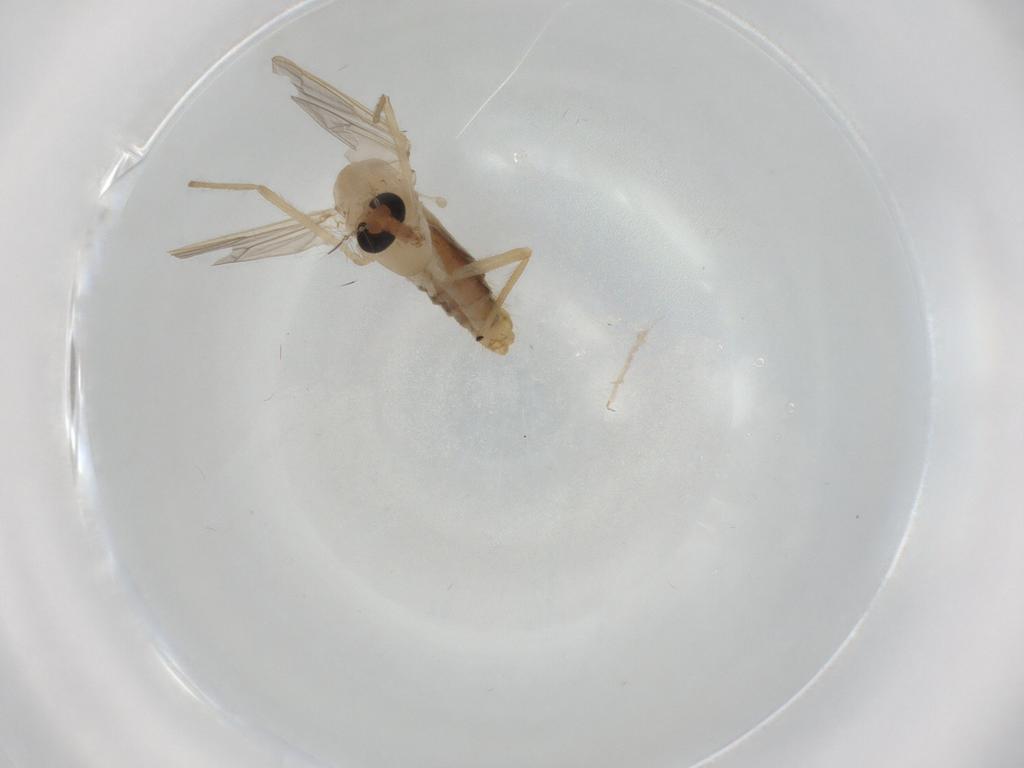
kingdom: Animalia
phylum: Arthropoda
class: Insecta
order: Diptera
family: Chironomidae
